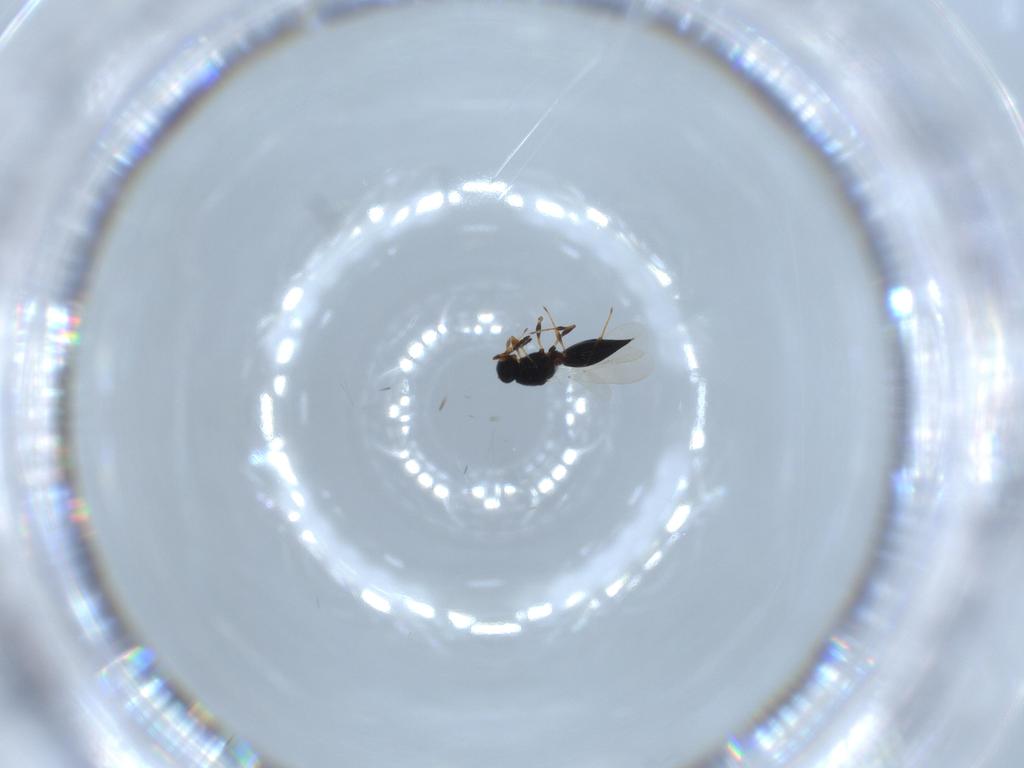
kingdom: Animalia
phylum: Arthropoda
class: Insecta
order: Hymenoptera
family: Platygastridae
